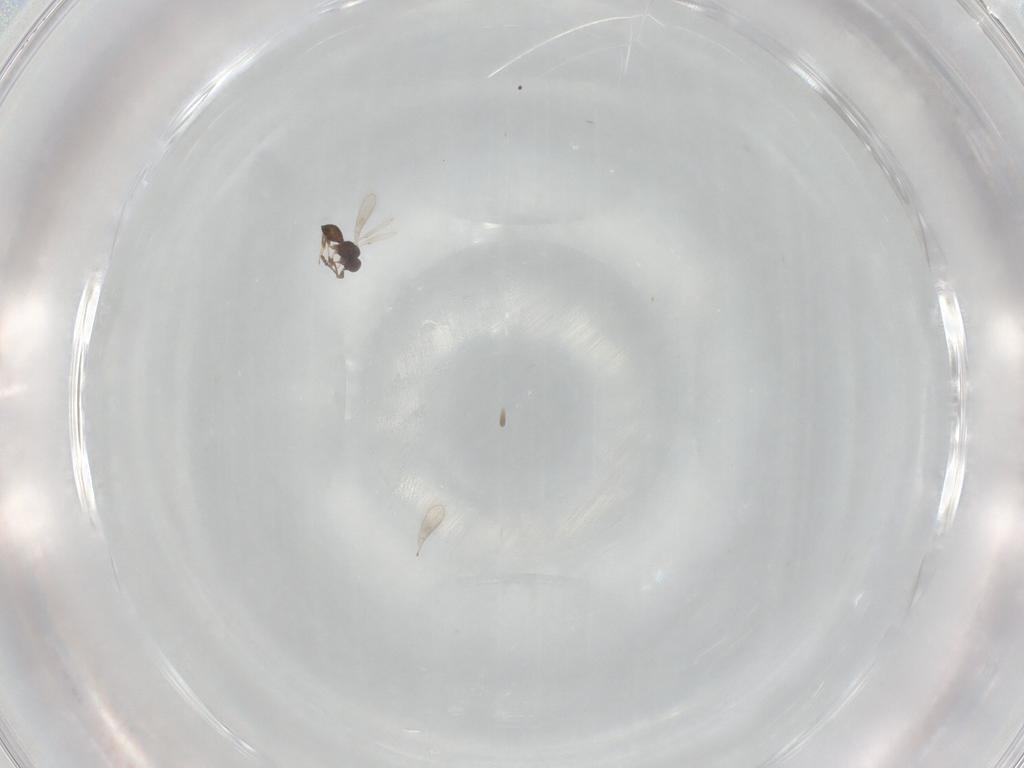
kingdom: Animalia
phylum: Arthropoda
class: Insecta
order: Hymenoptera
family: Scelionidae
